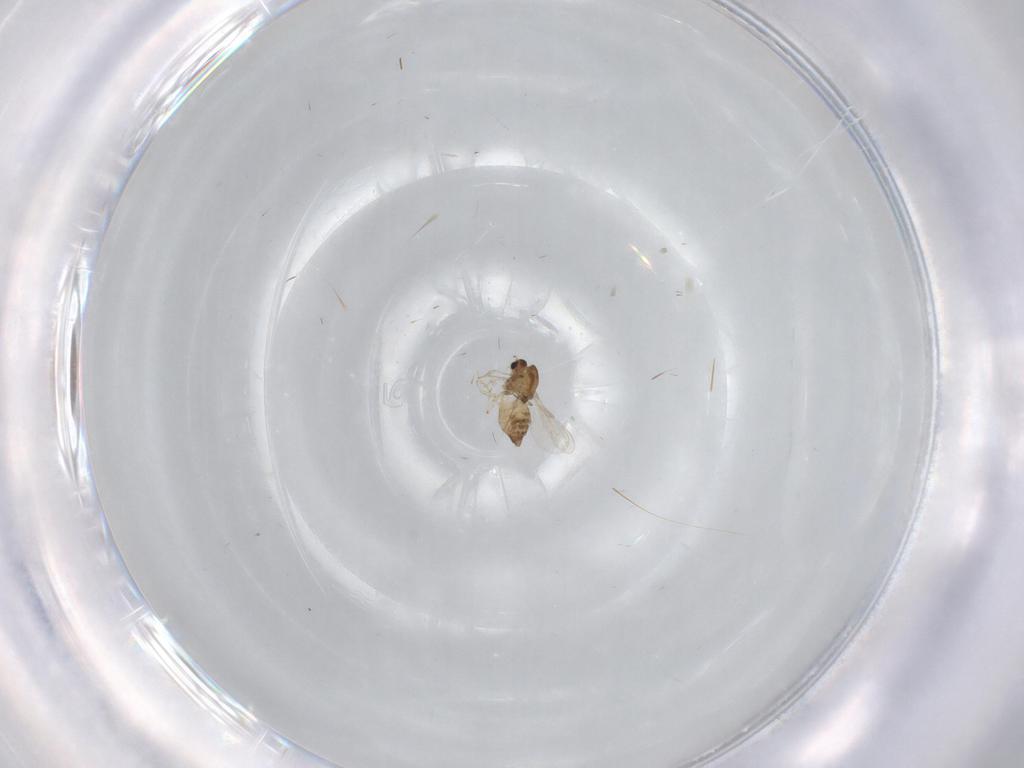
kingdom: Animalia
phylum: Arthropoda
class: Insecta
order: Diptera
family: Chironomidae
